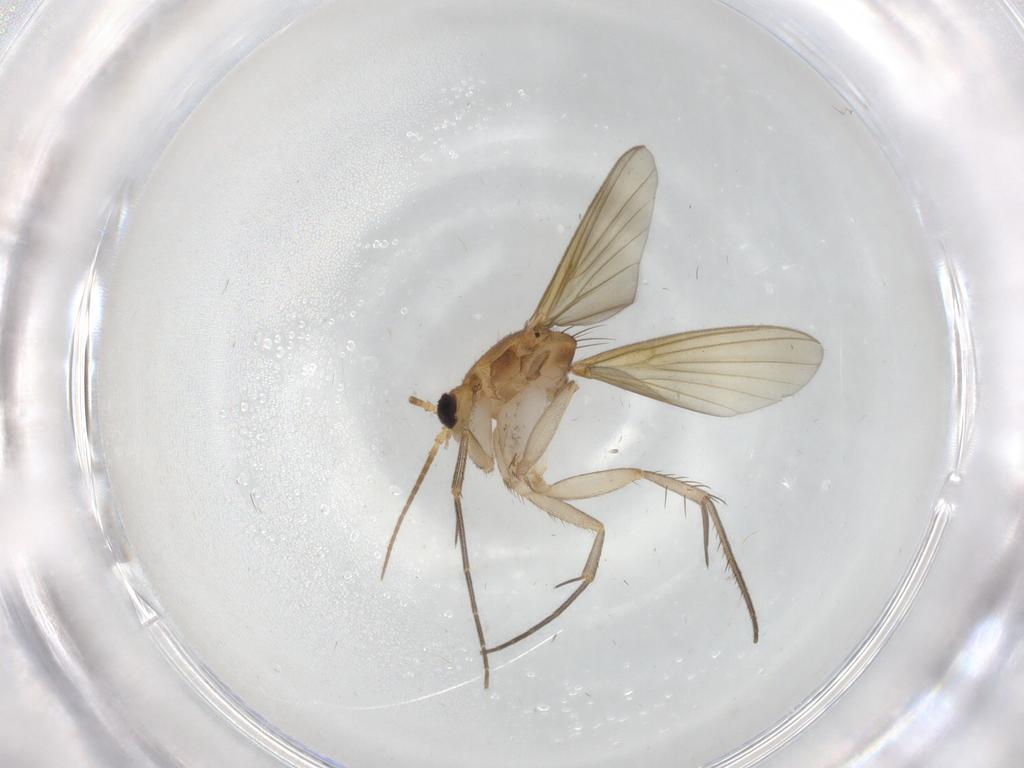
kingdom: Animalia
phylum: Arthropoda
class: Insecta
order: Diptera
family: Mycetophilidae
